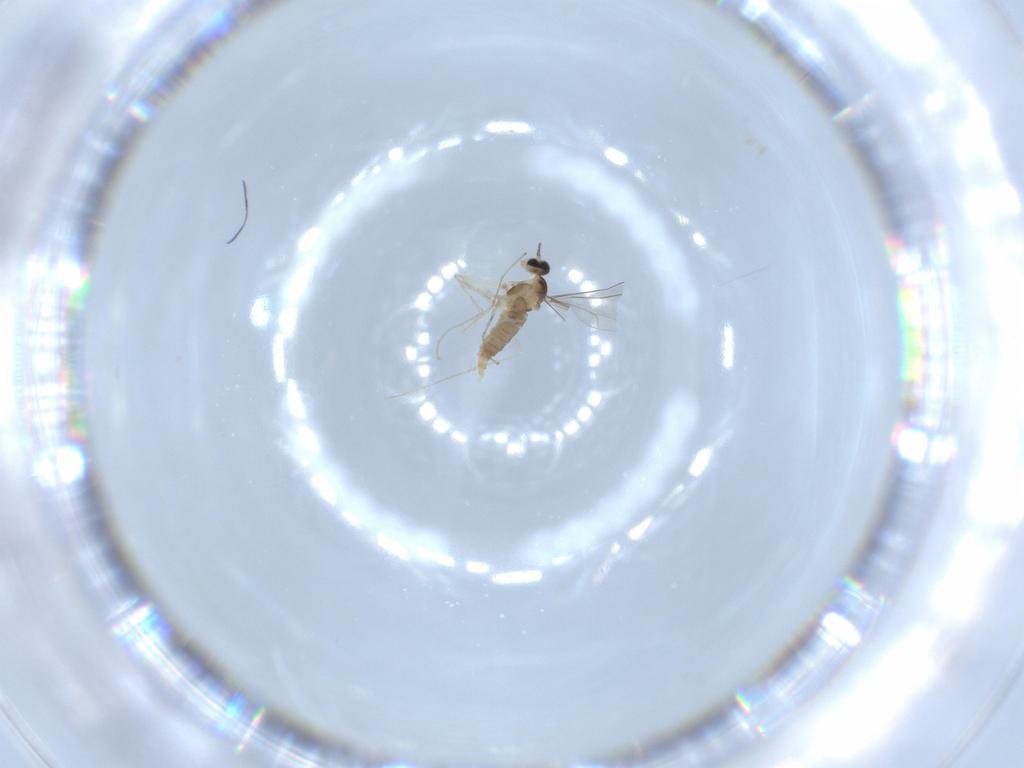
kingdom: Animalia
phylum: Arthropoda
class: Insecta
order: Diptera
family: Cecidomyiidae
